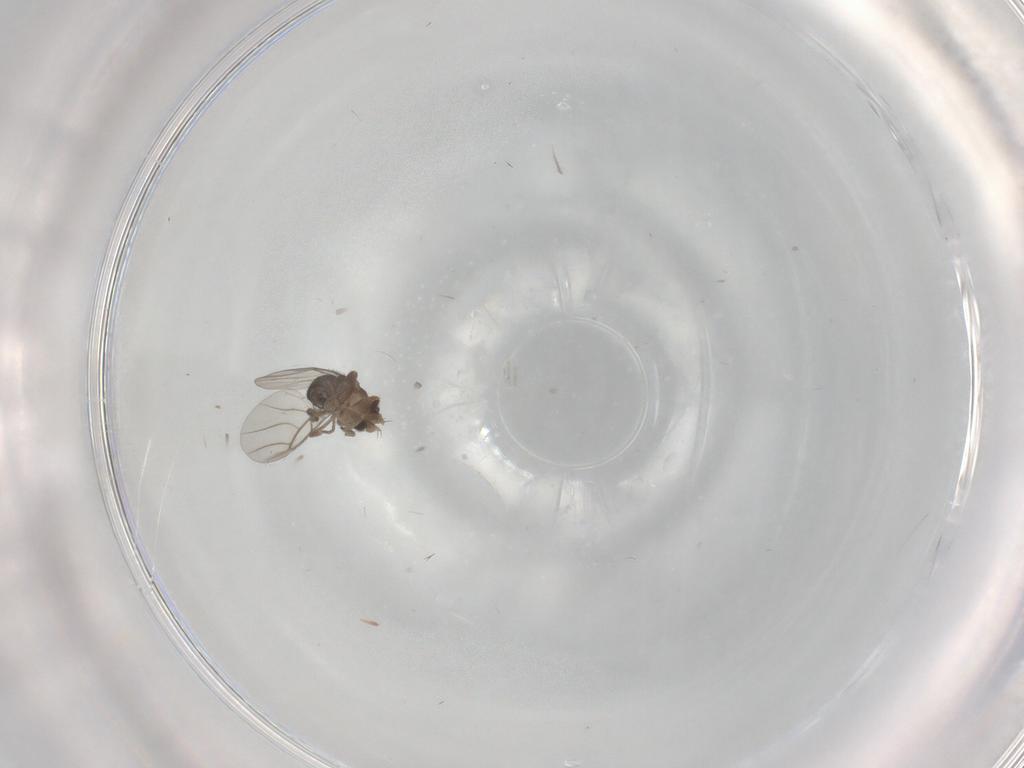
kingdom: Animalia
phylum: Arthropoda
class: Insecta
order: Diptera
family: Phoridae
